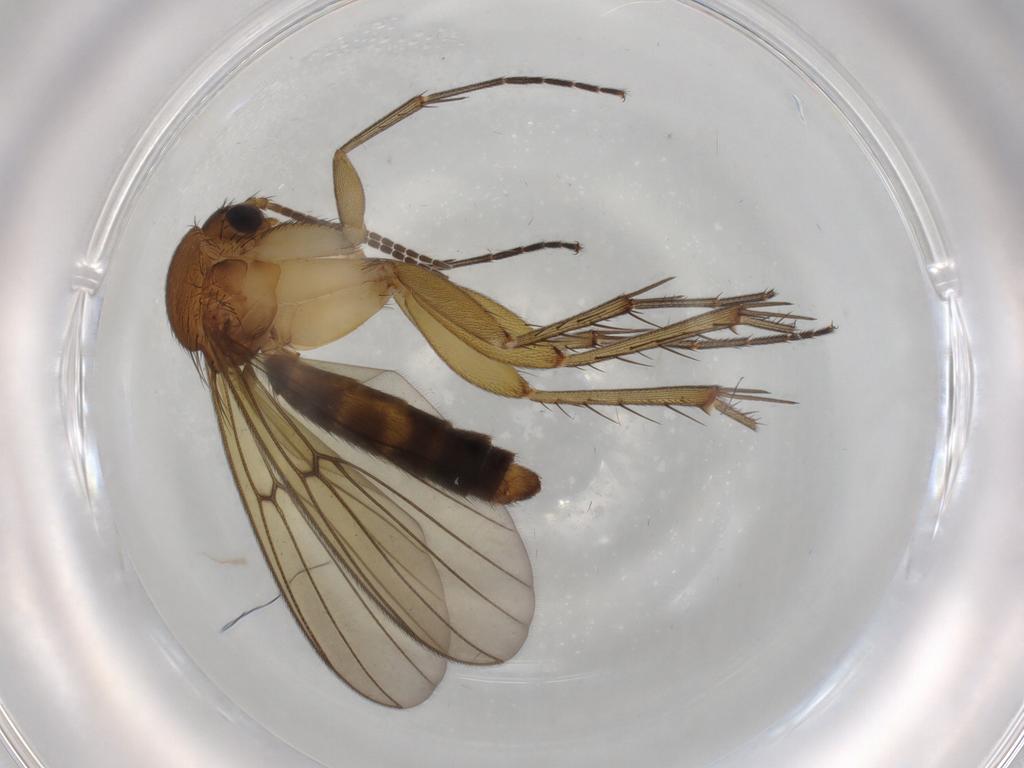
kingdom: Animalia
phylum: Arthropoda
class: Insecta
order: Diptera
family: Phoridae
